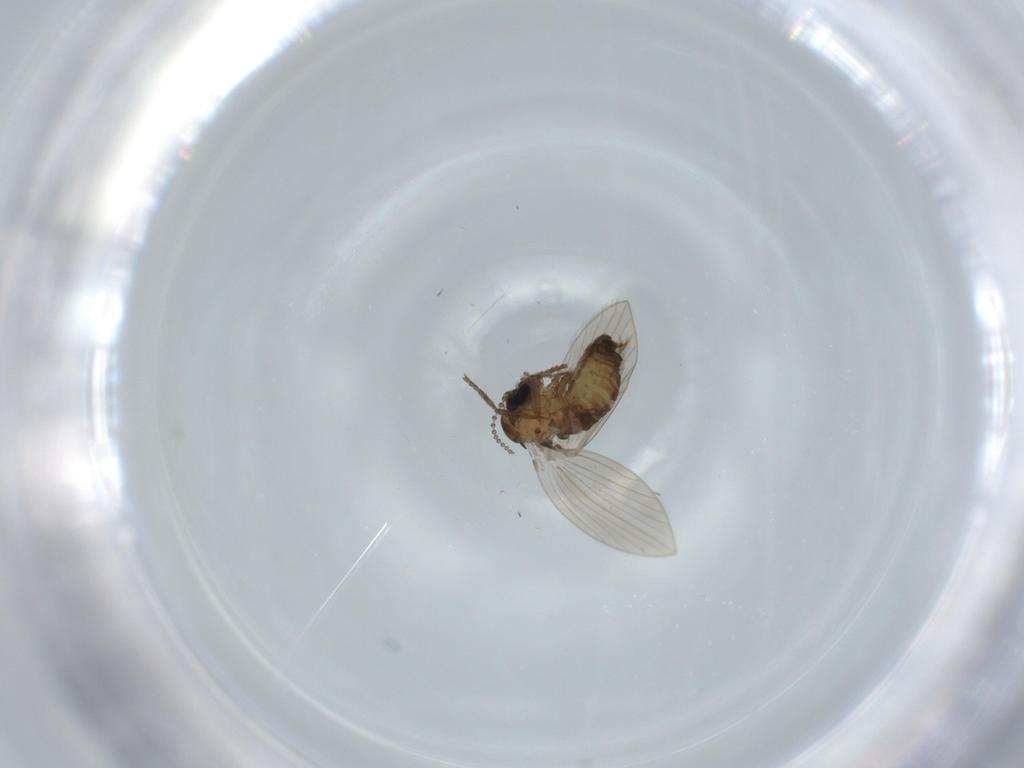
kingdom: Animalia
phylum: Arthropoda
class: Insecta
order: Diptera
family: Psychodidae
